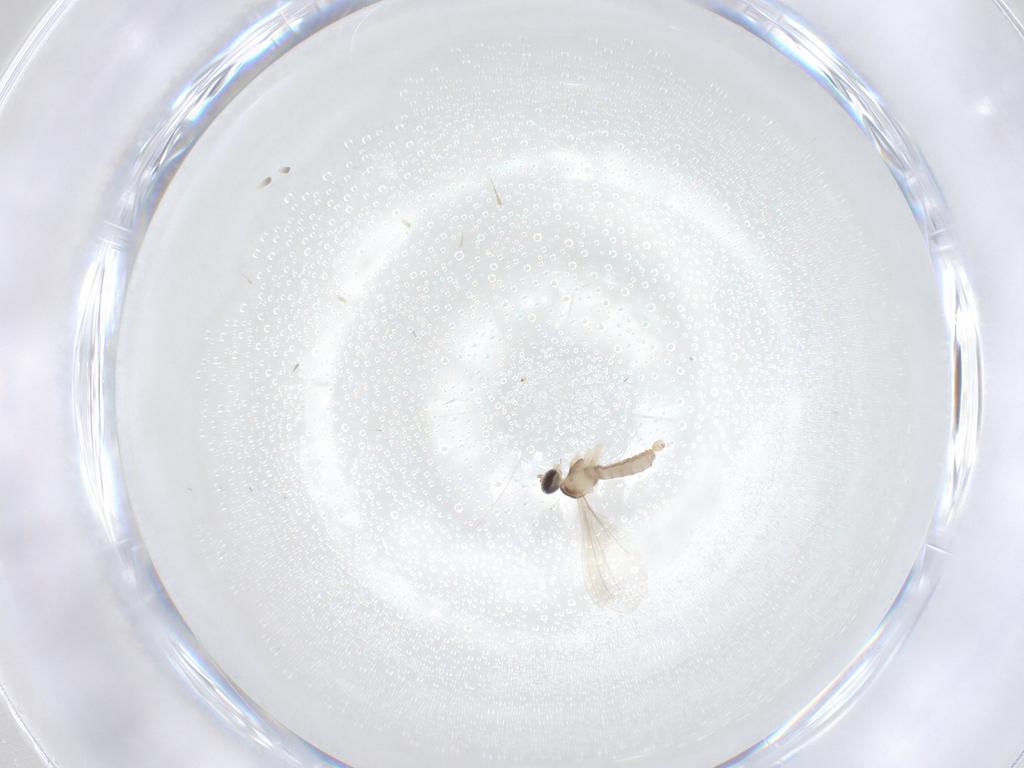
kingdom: Animalia
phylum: Arthropoda
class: Insecta
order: Diptera
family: Cecidomyiidae
